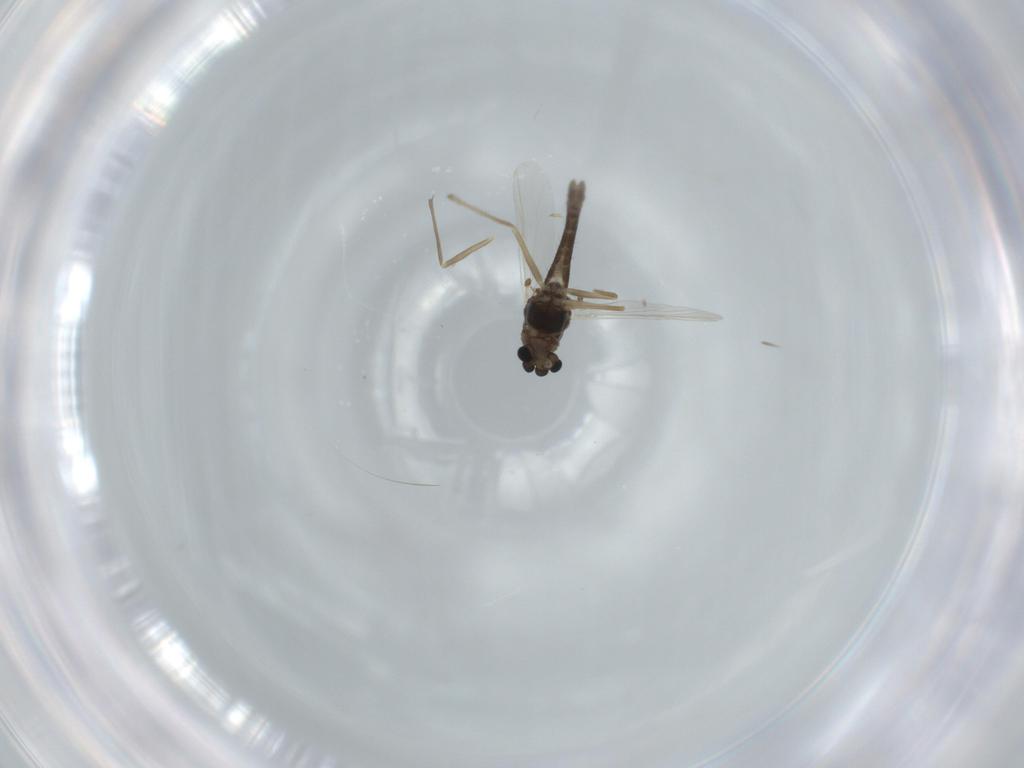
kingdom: Animalia
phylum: Arthropoda
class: Insecta
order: Diptera
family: Chironomidae
